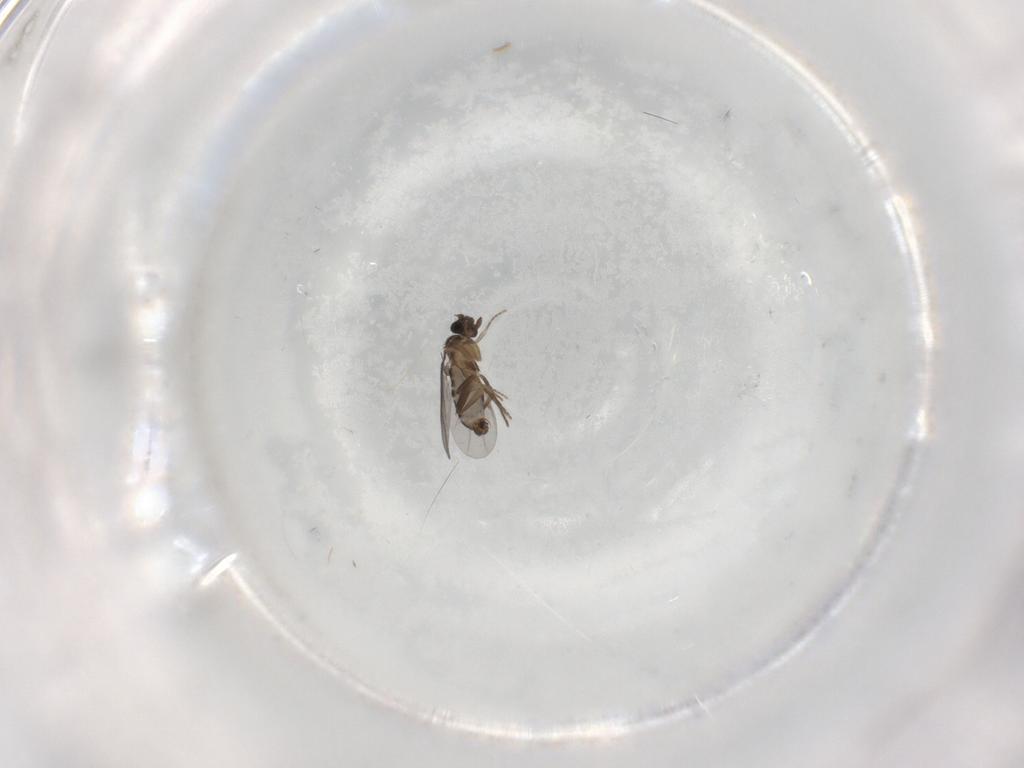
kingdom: Animalia
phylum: Arthropoda
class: Insecta
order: Diptera
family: Phoridae
